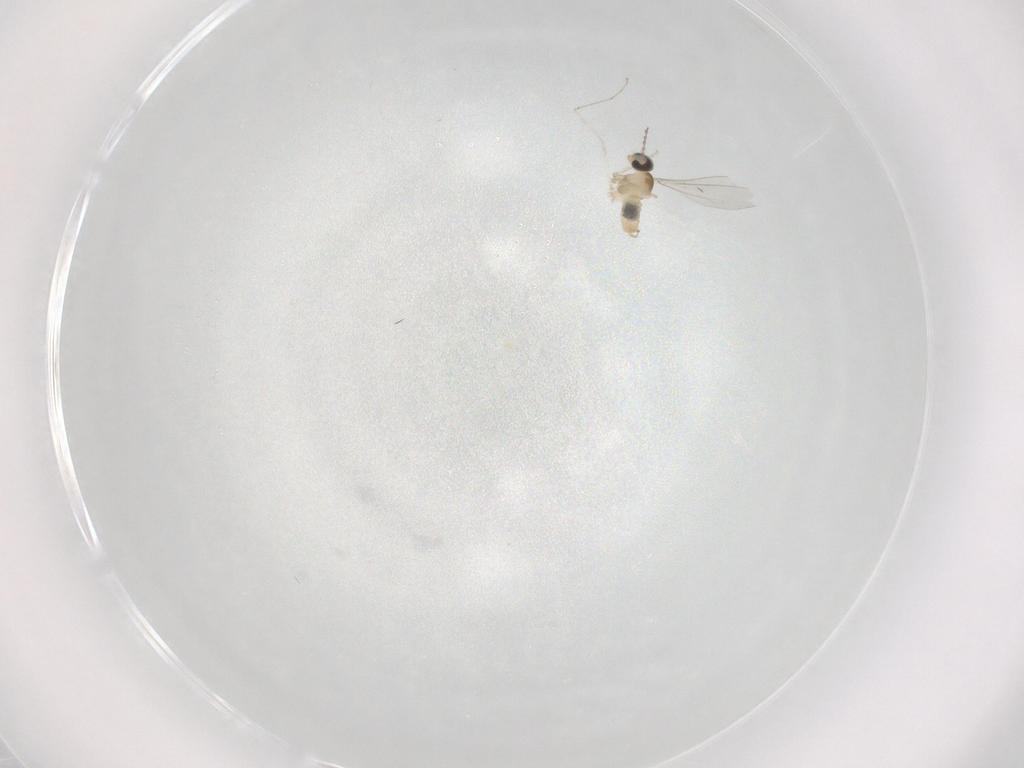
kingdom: Animalia
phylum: Arthropoda
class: Insecta
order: Diptera
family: Cecidomyiidae
